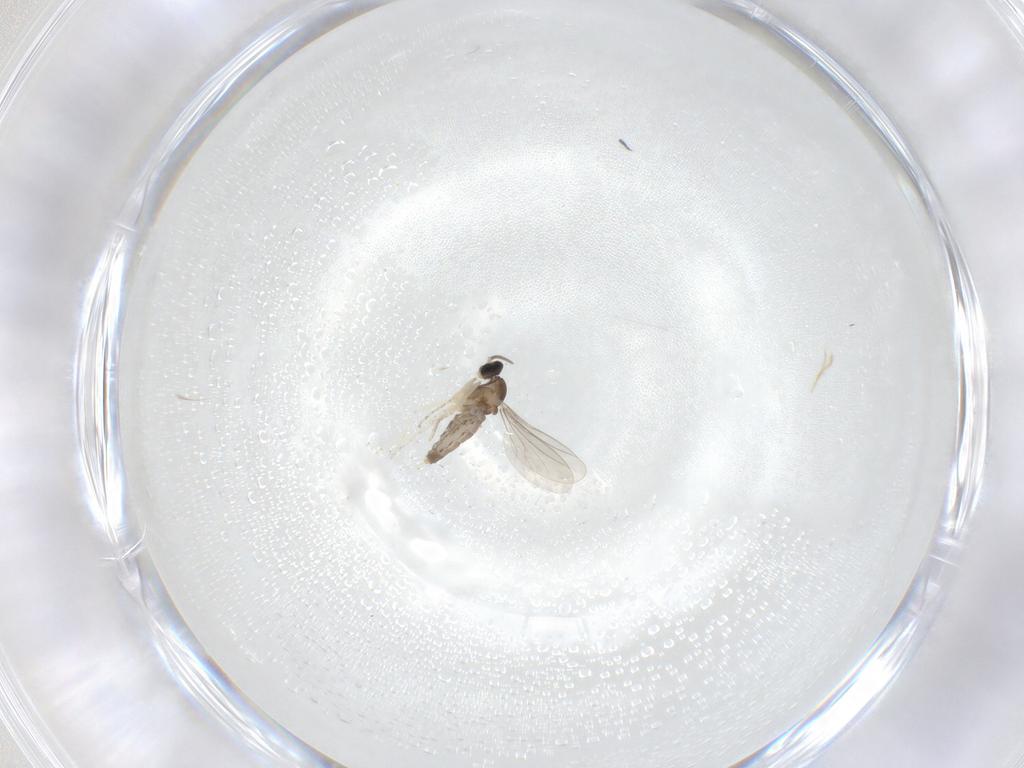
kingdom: Animalia
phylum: Arthropoda
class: Insecta
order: Diptera
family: Cecidomyiidae
